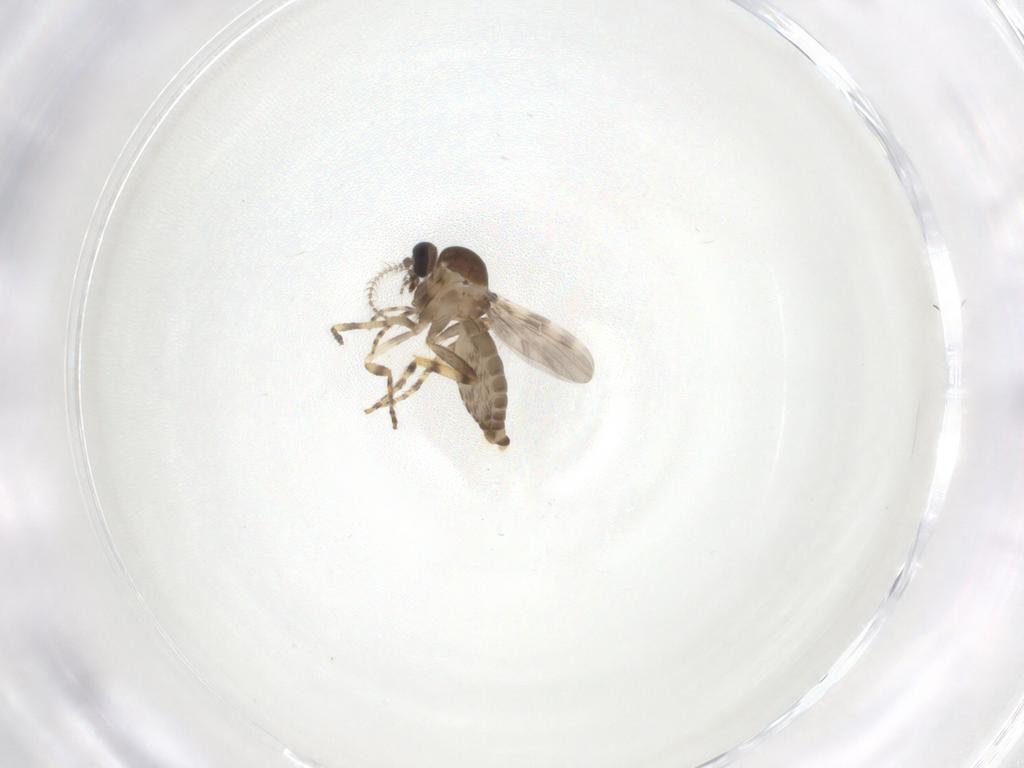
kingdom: Animalia
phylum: Arthropoda
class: Insecta
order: Diptera
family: Ceratopogonidae
